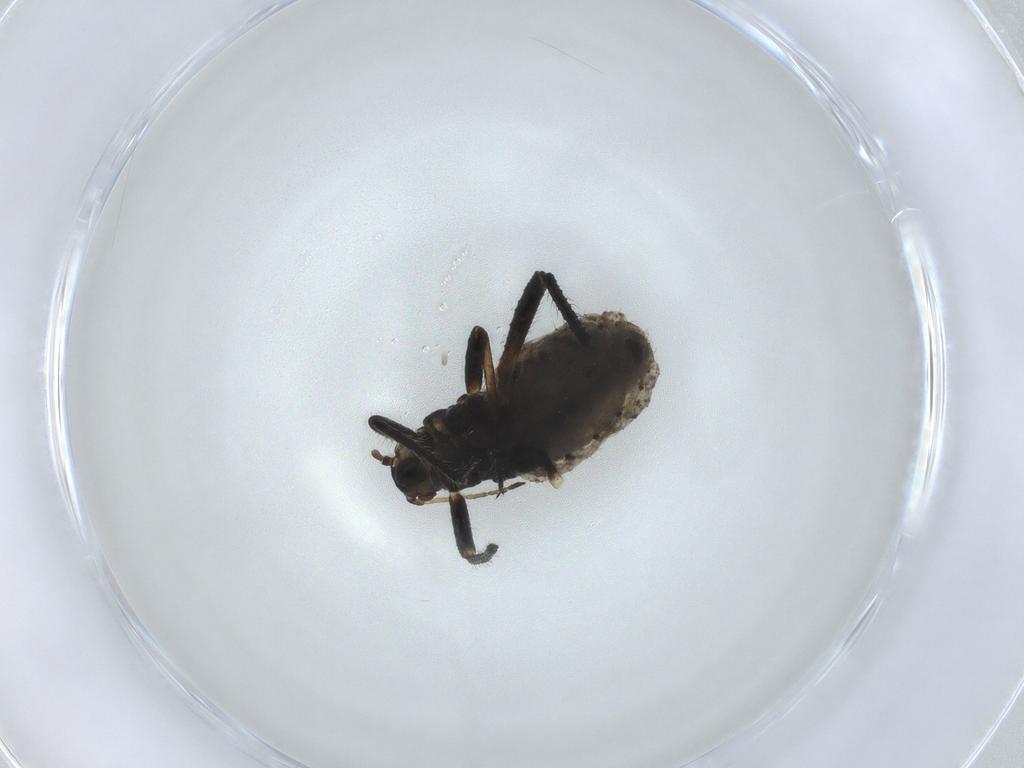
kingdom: Animalia
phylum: Arthropoda
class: Insecta
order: Hemiptera
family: Lachnidae
